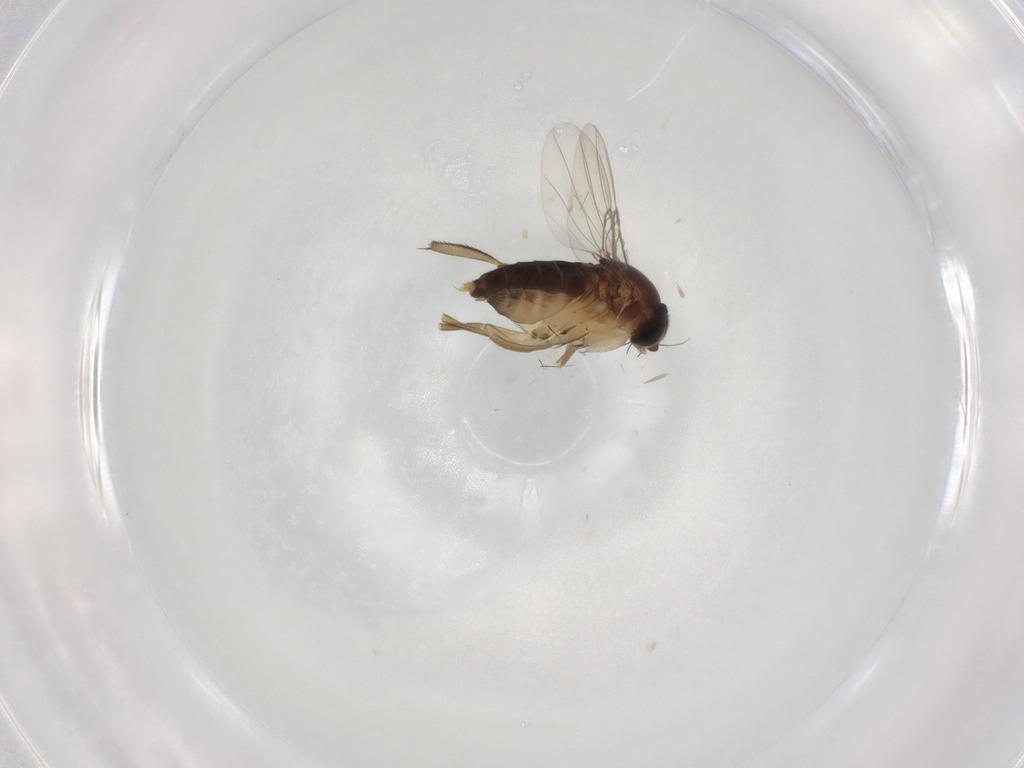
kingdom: Animalia
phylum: Arthropoda
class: Insecta
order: Diptera
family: Phoridae
